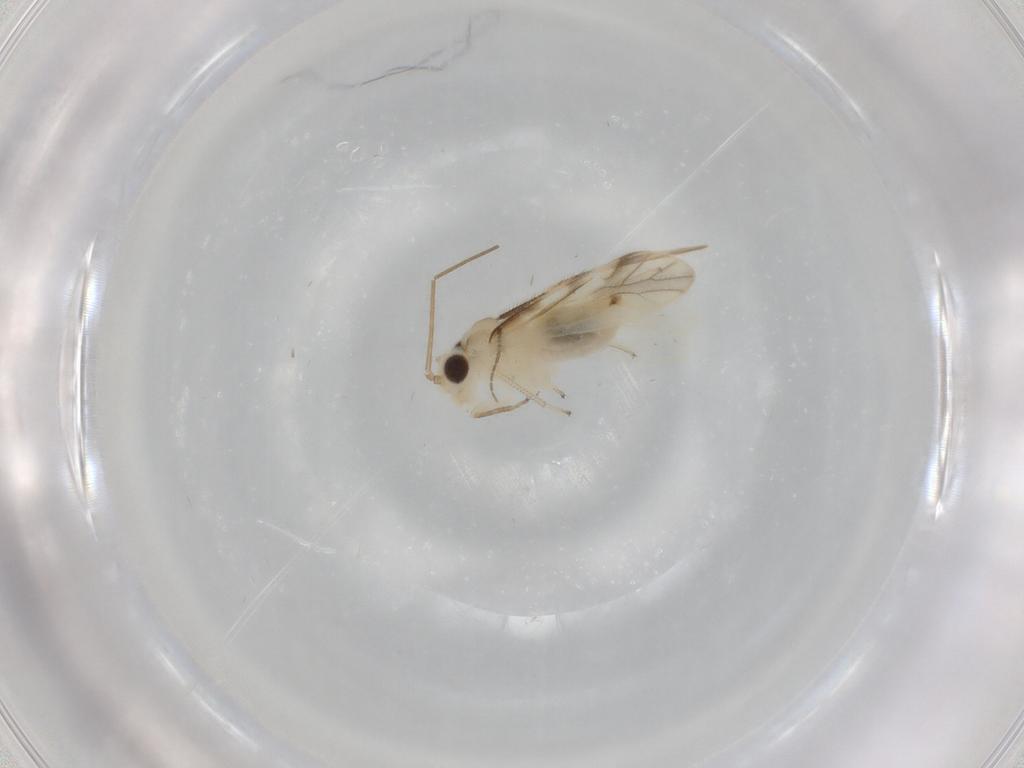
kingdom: Animalia
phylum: Arthropoda
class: Insecta
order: Psocodea
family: Caeciliusidae
